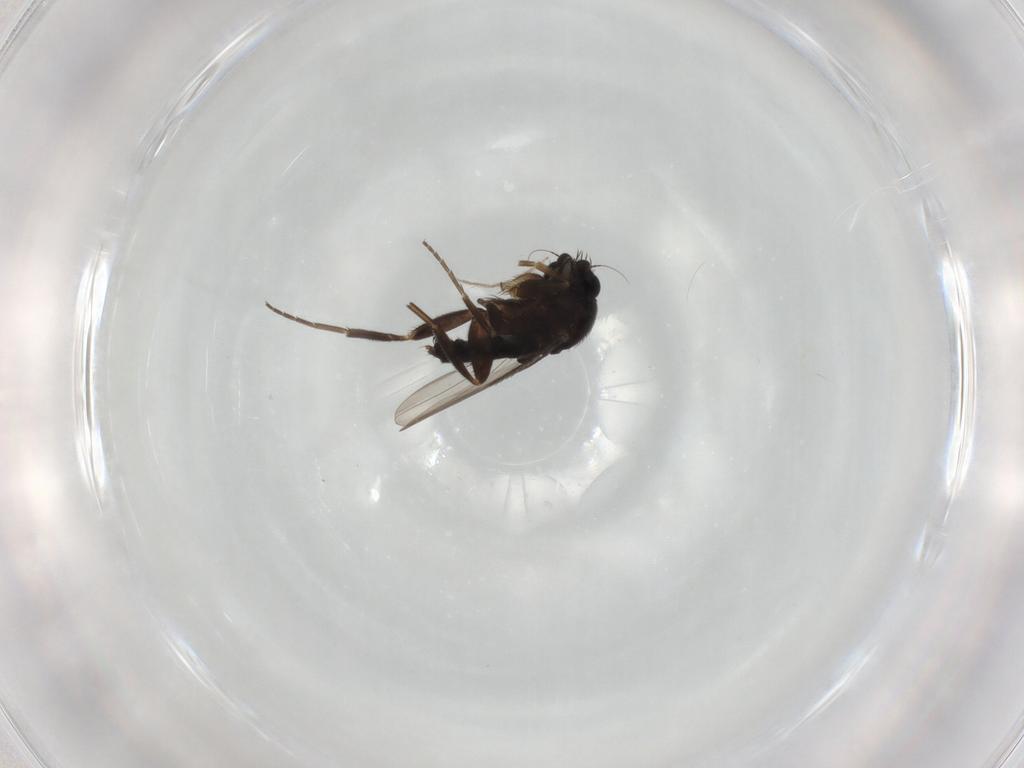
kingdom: Animalia
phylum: Arthropoda
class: Insecta
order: Diptera
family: Phoridae
